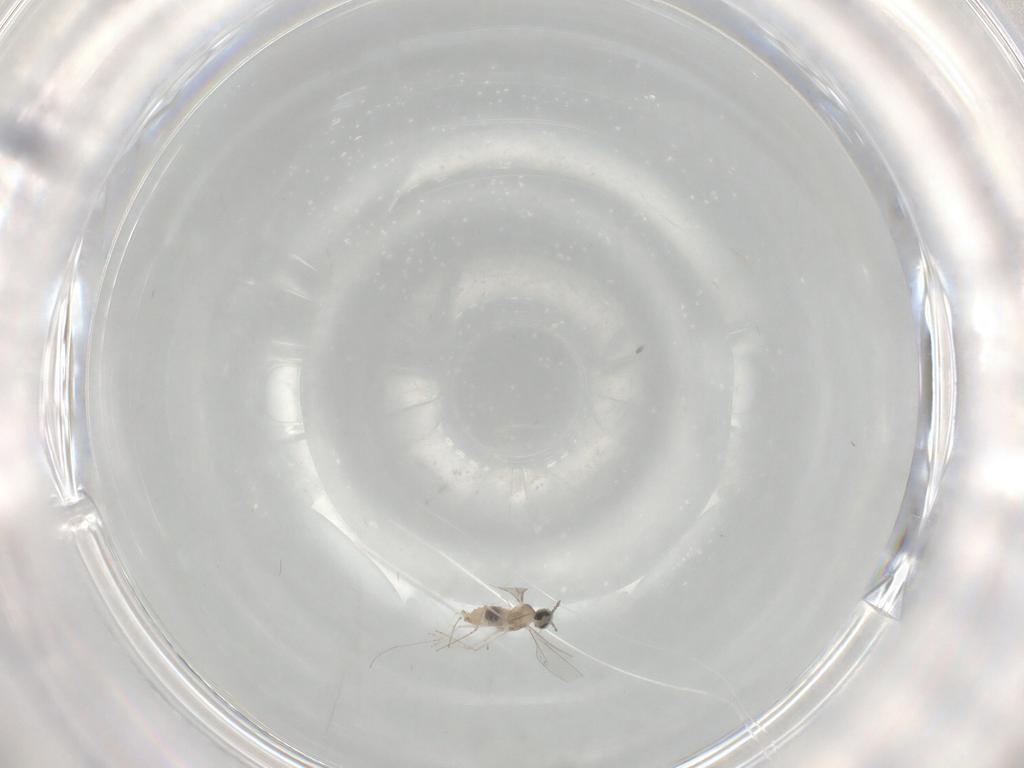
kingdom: Animalia
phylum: Arthropoda
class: Insecta
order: Diptera
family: Cecidomyiidae
